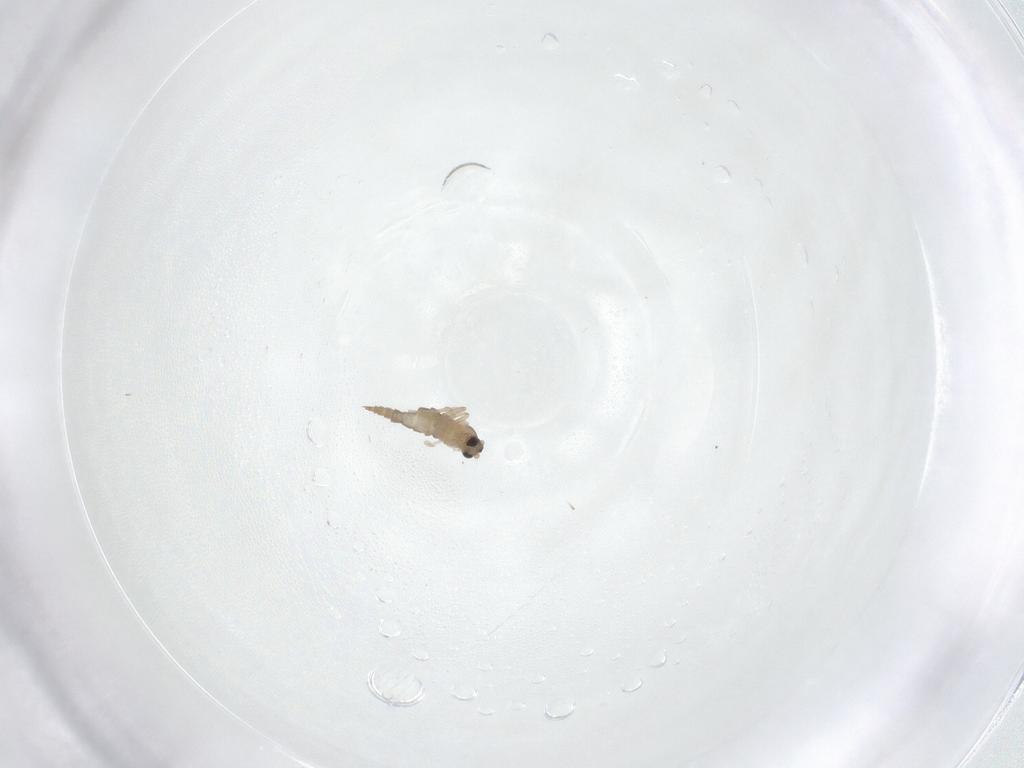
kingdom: Animalia
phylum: Arthropoda
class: Insecta
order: Diptera
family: Cecidomyiidae
